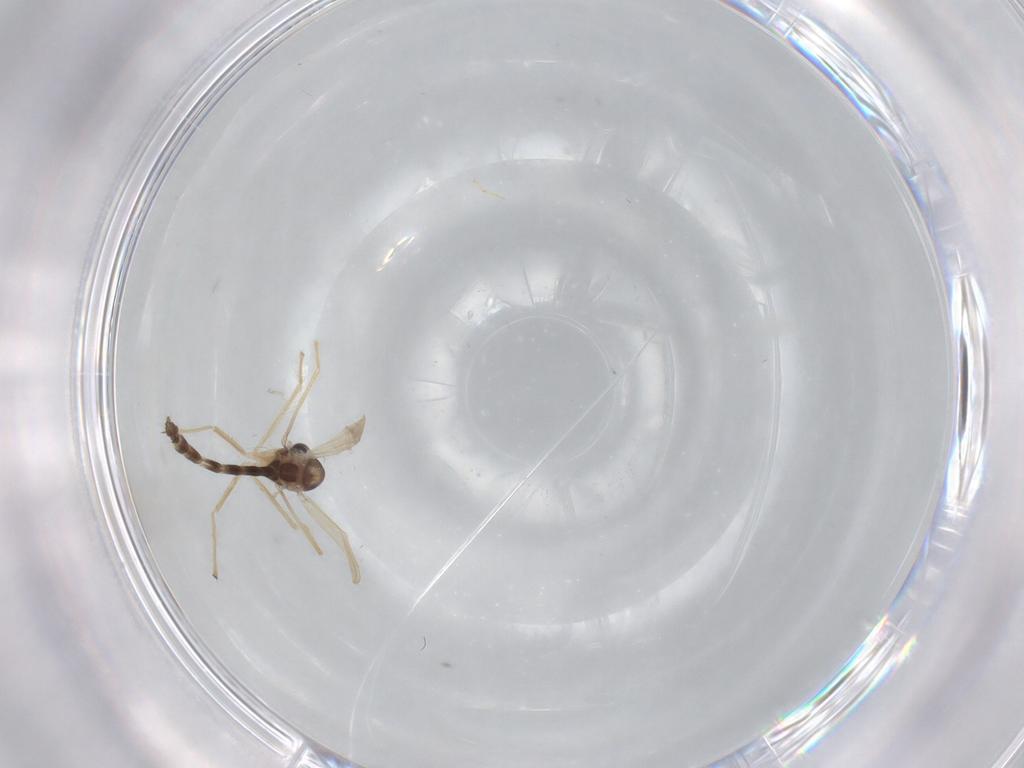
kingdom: Animalia
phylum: Arthropoda
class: Insecta
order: Diptera
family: Chironomidae
